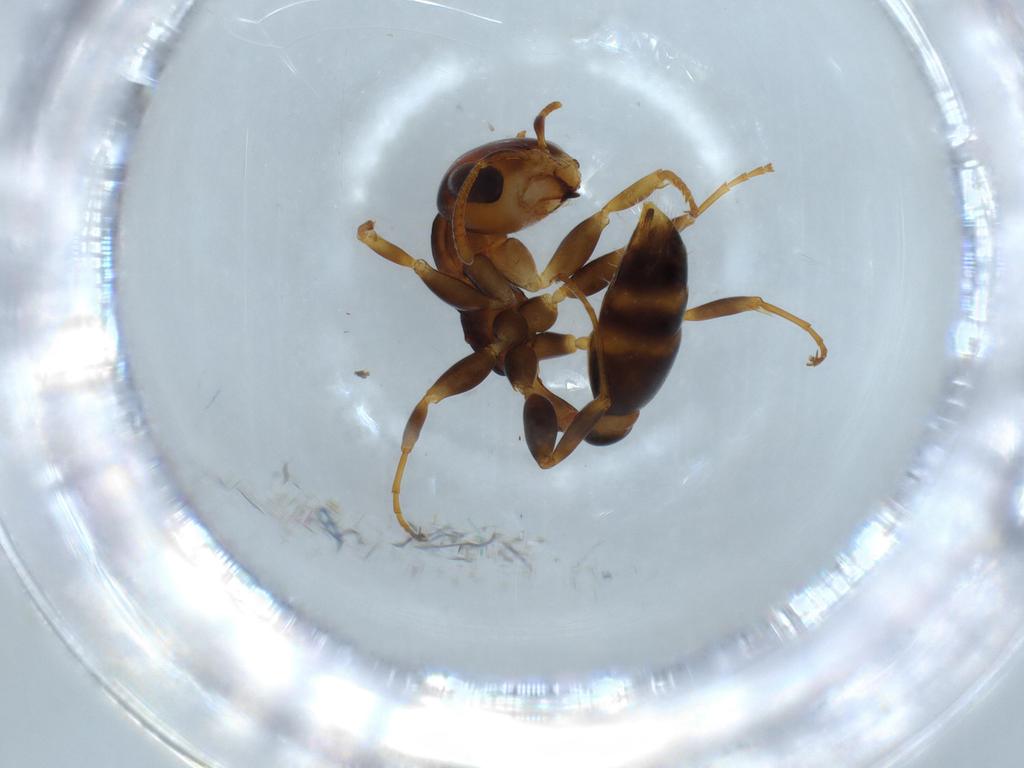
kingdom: Animalia
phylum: Arthropoda
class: Insecta
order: Hymenoptera
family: Formicidae
